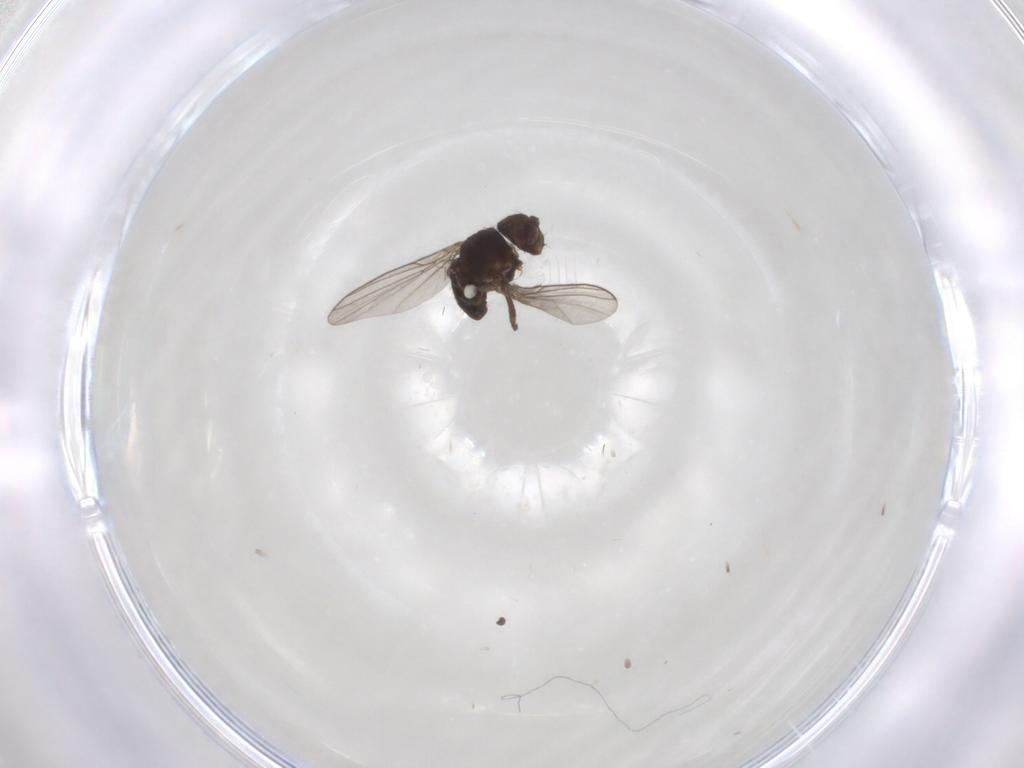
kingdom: Animalia
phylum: Arthropoda
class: Insecta
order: Diptera
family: Agromyzidae
